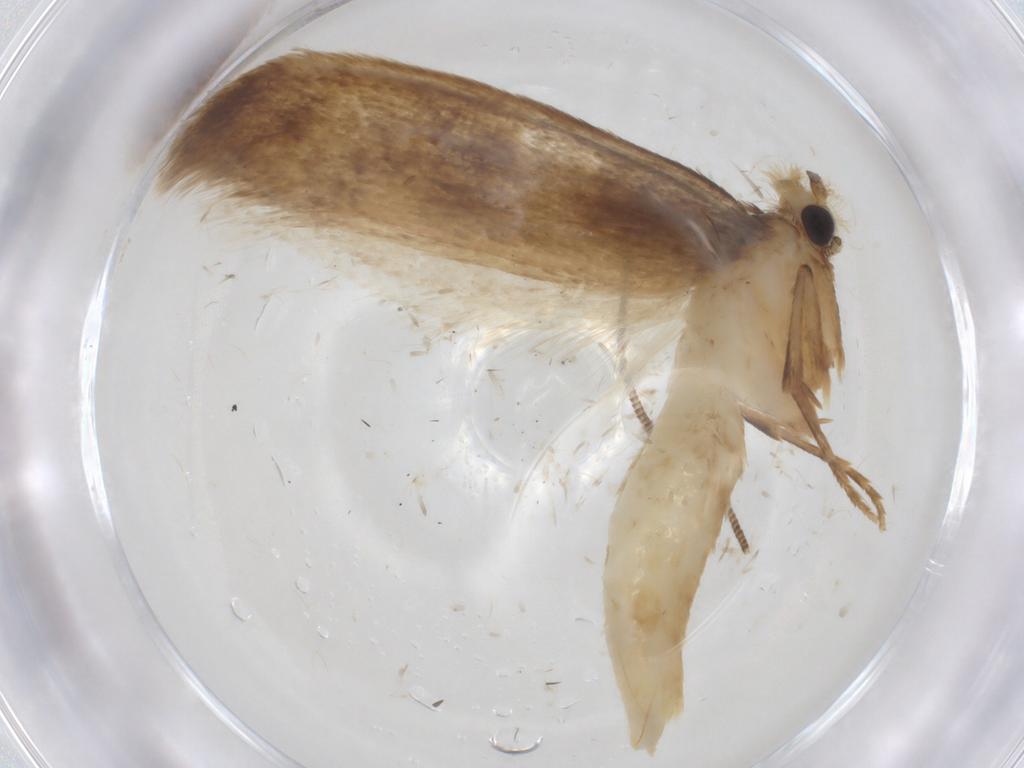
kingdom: Animalia
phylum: Arthropoda
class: Insecta
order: Lepidoptera
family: Tineidae
